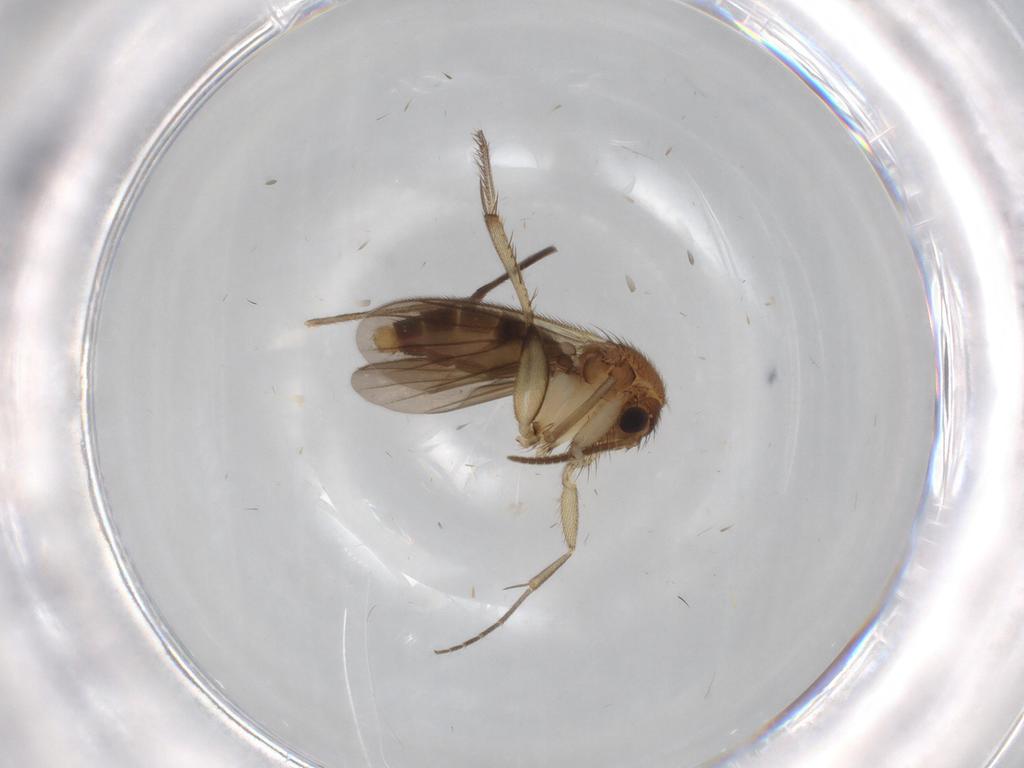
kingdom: Animalia
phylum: Arthropoda
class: Insecta
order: Diptera
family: Cecidomyiidae
